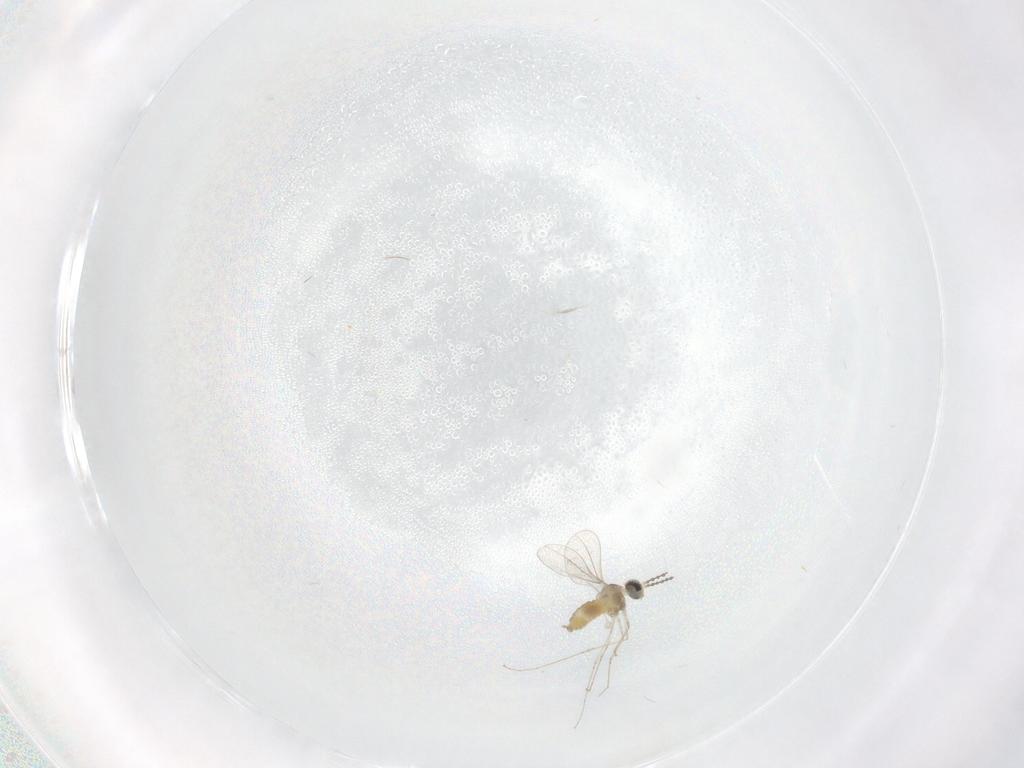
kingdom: Animalia
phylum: Arthropoda
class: Insecta
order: Diptera
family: Cecidomyiidae
